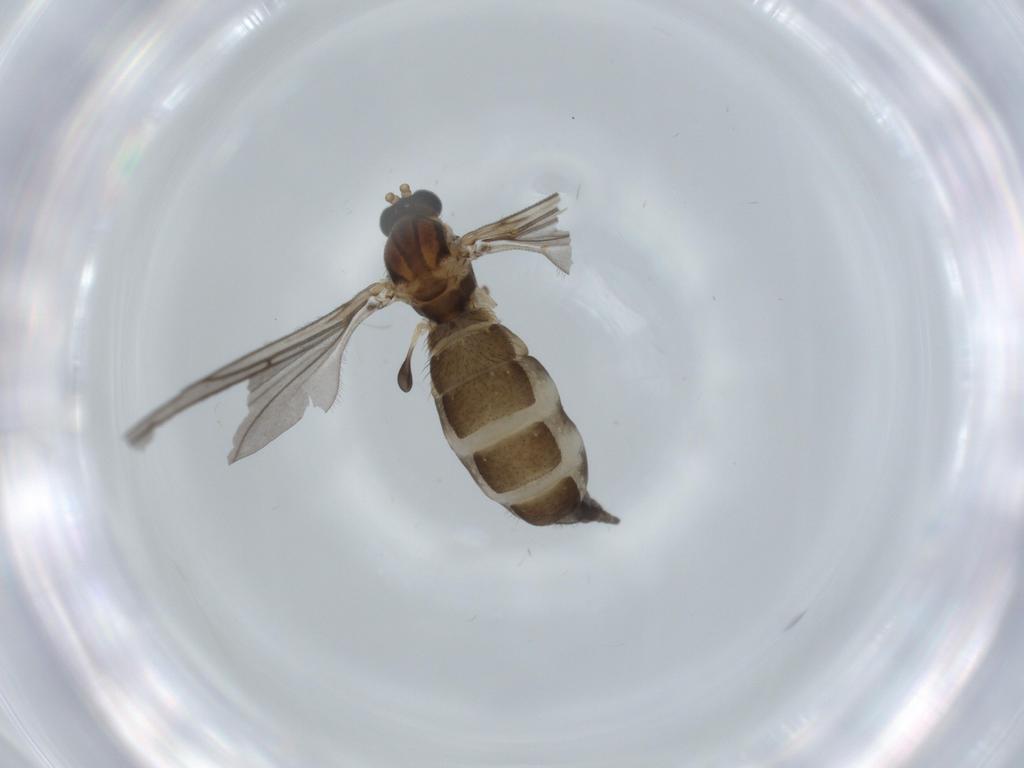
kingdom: Animalia
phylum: Arthropoda
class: Insecta
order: Diptera
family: Sciaridae
